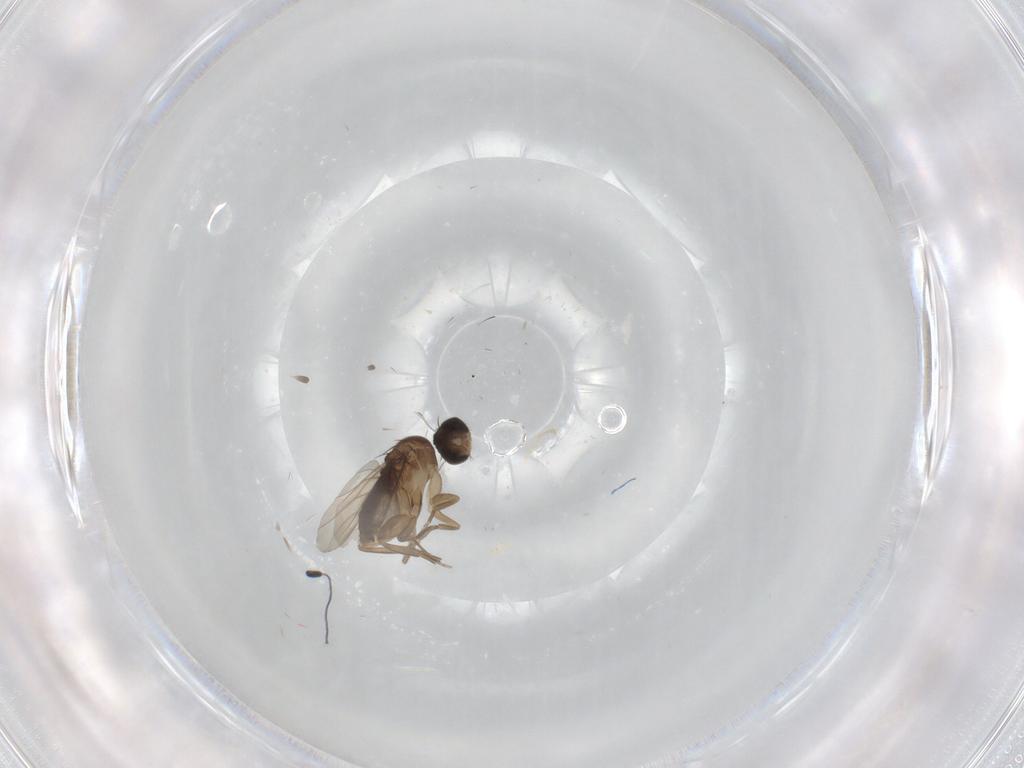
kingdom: Animalia
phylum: Arthropoda
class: Insecta
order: Diptera
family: Phoridae
